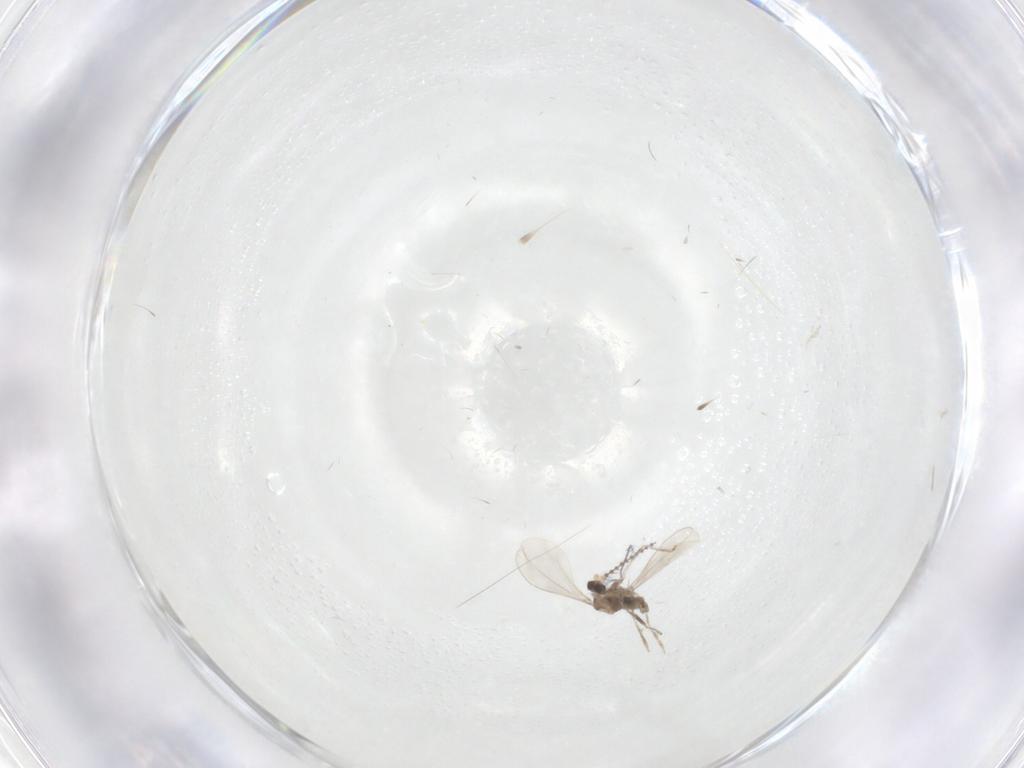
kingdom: Animalia
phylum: Arthropoda
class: Insecta
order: Diptera
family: Cecidomyiidae
